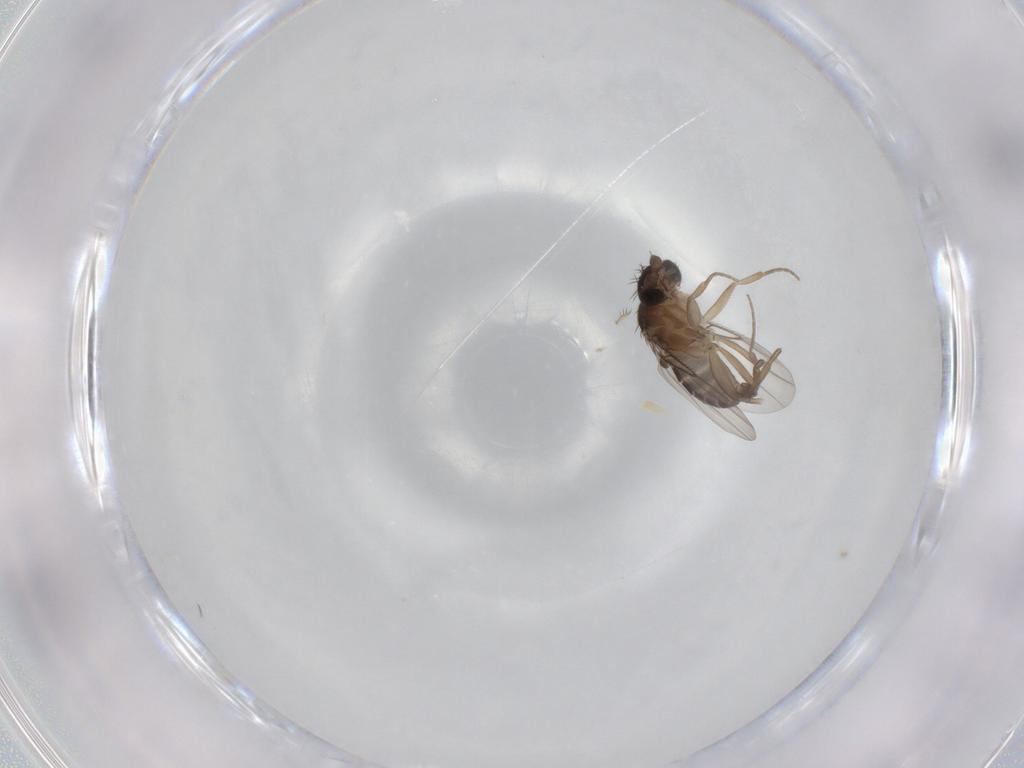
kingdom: Animalia
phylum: Arthropoda
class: Insecta
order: Diptera
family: Phoridae
